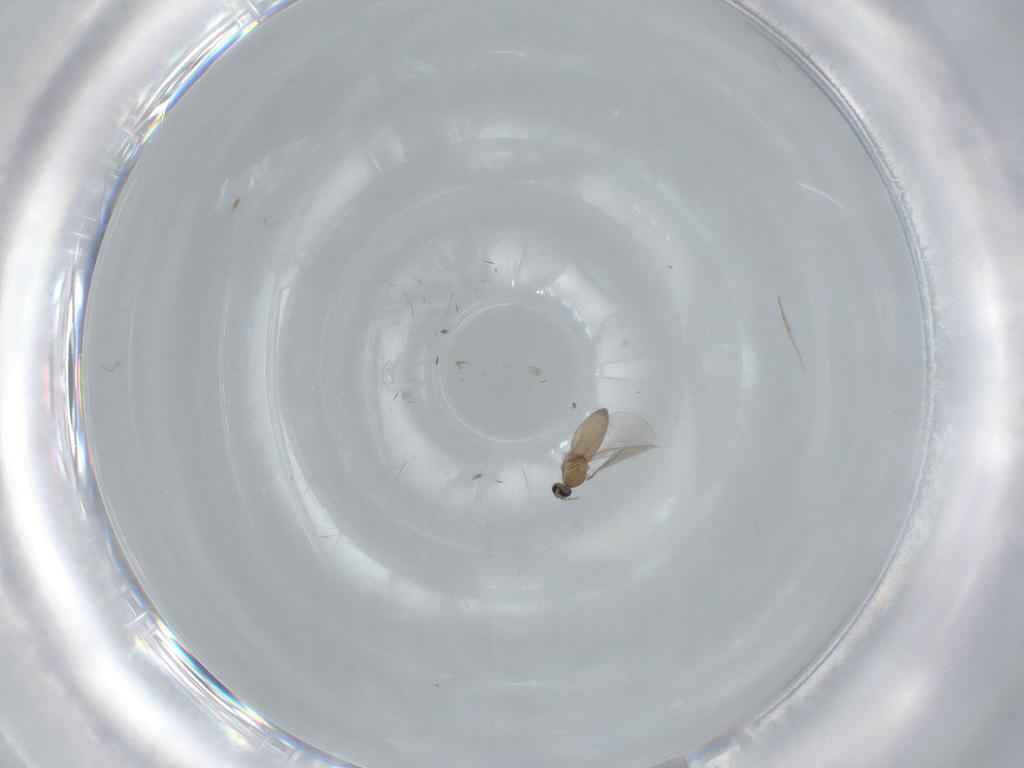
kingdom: Animalia
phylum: Arthropoda
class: Insecta
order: Diptera
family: Cecidomyiidae
